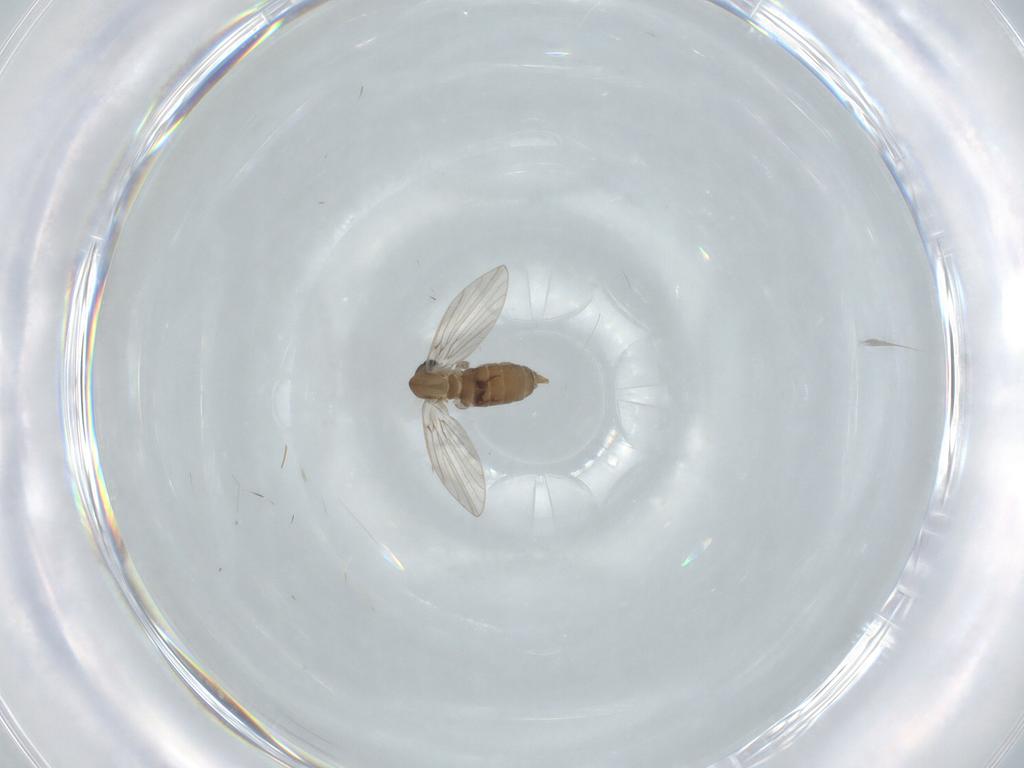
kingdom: Animalia
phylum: Arthropoda
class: Insecta
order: Diptera
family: Cecidomyiidae
